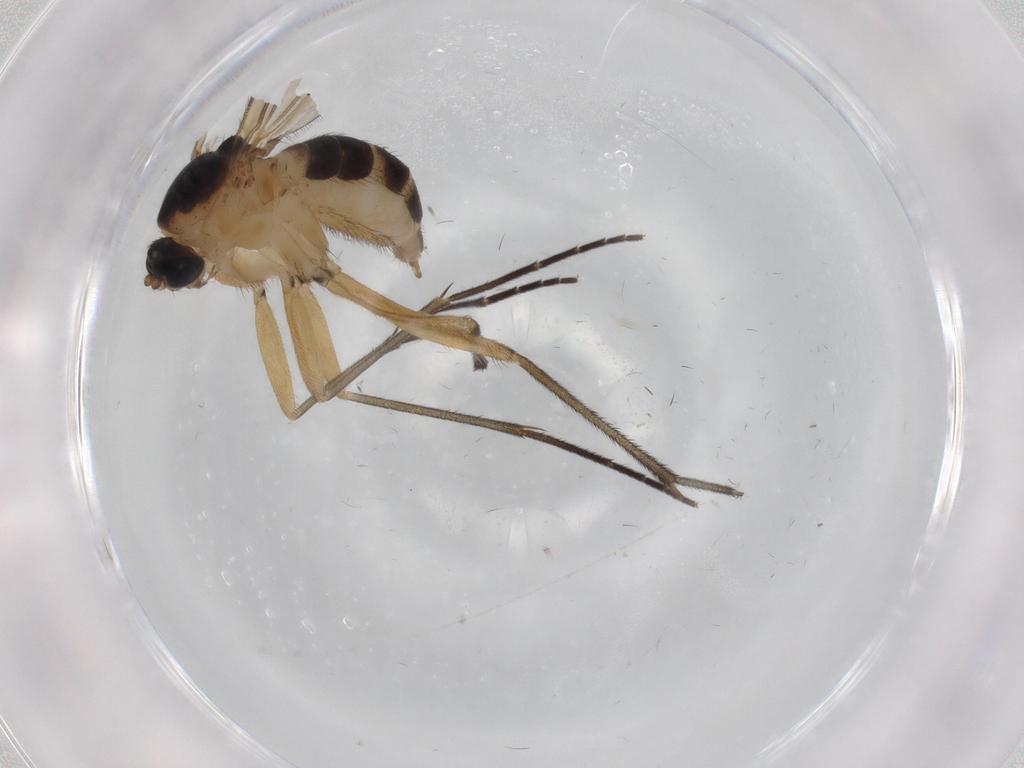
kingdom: Animalia
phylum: Arthropoda
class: Insecta
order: Diptera
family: Sciaridae
